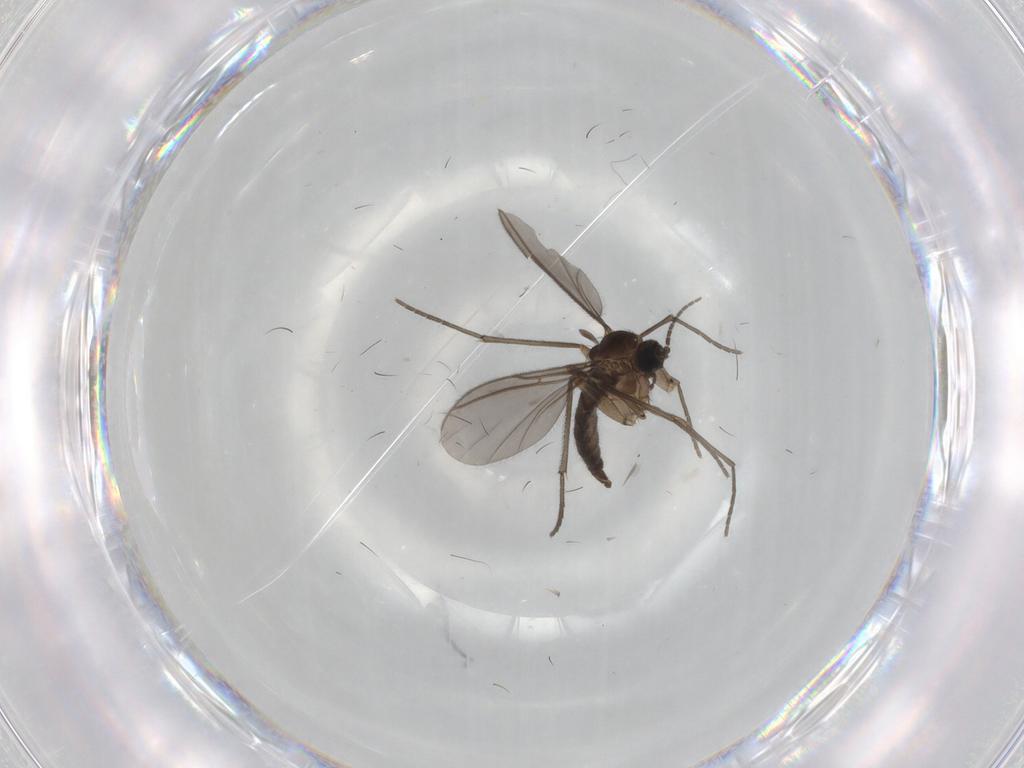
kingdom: Animalia
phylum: Arthropoda
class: Insecta
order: Diptera
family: Sciaridae
